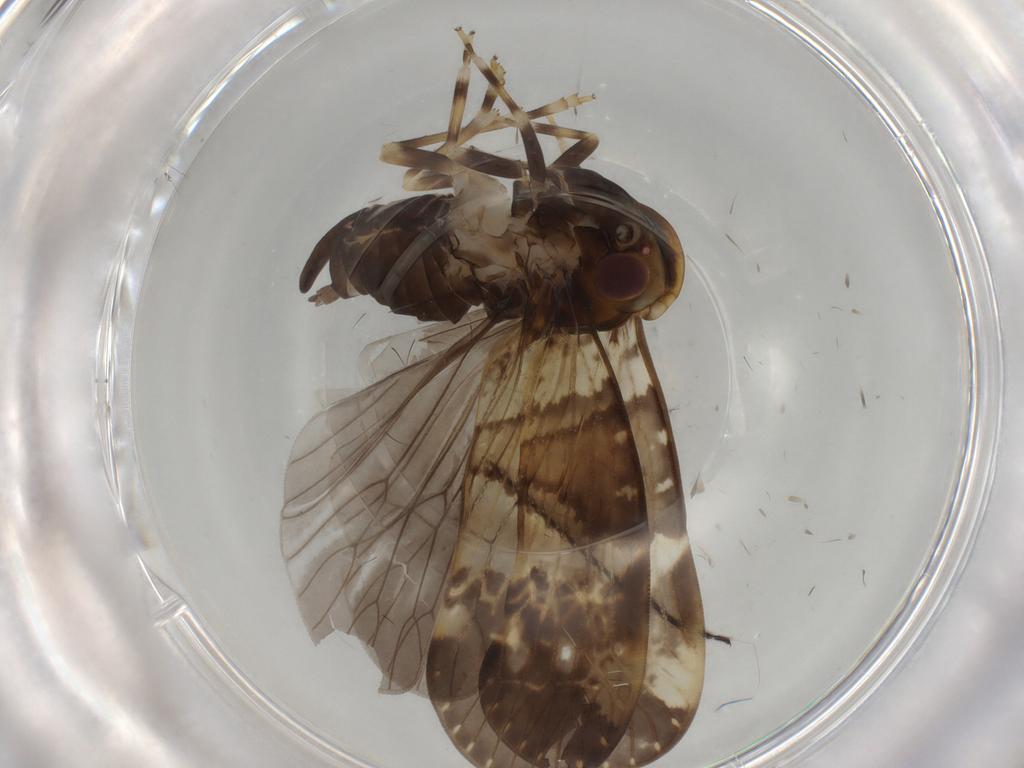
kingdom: Animalia
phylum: Arthropoda
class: Insecta
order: Hemiptera
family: Cixiidae
